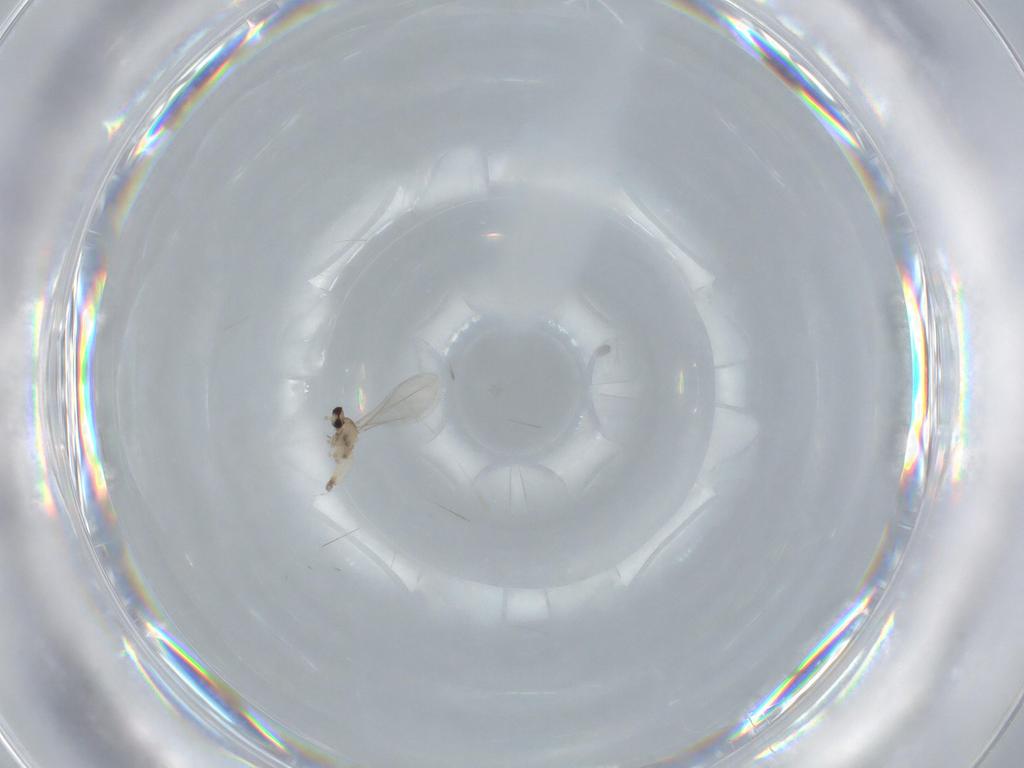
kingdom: Animalia
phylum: Arthropoda
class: Insecta
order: Diptera
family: Cecidomyiidae
